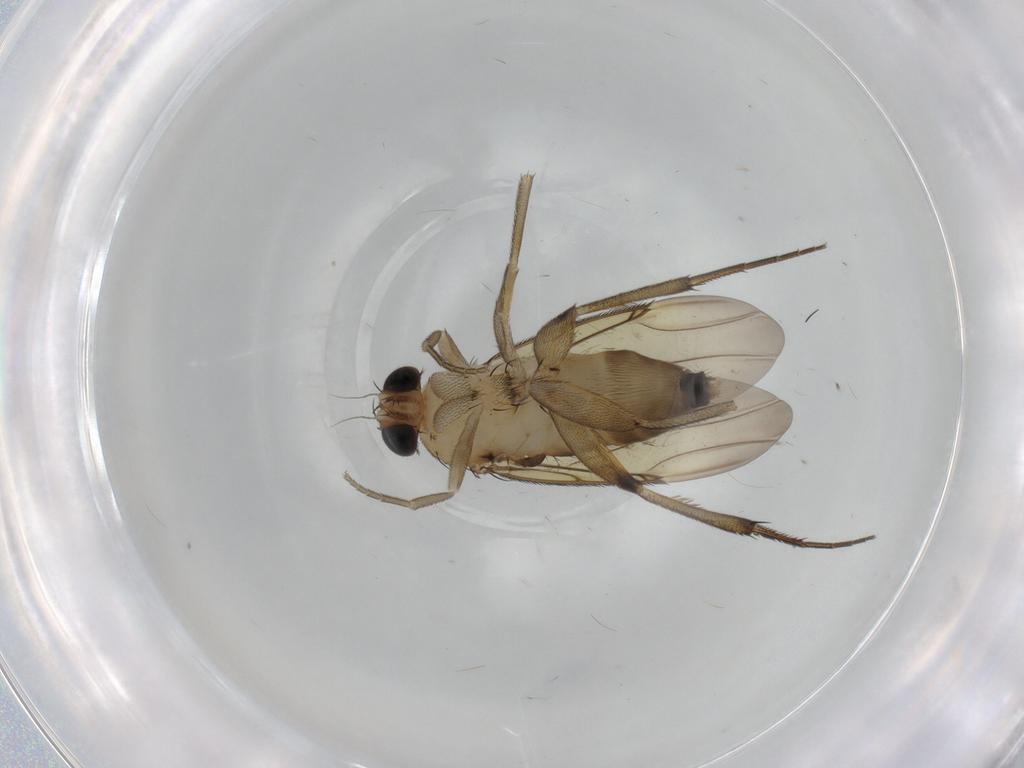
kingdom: Animalia
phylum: Arthropoda
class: Insecta
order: Diptera
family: Phoridae
